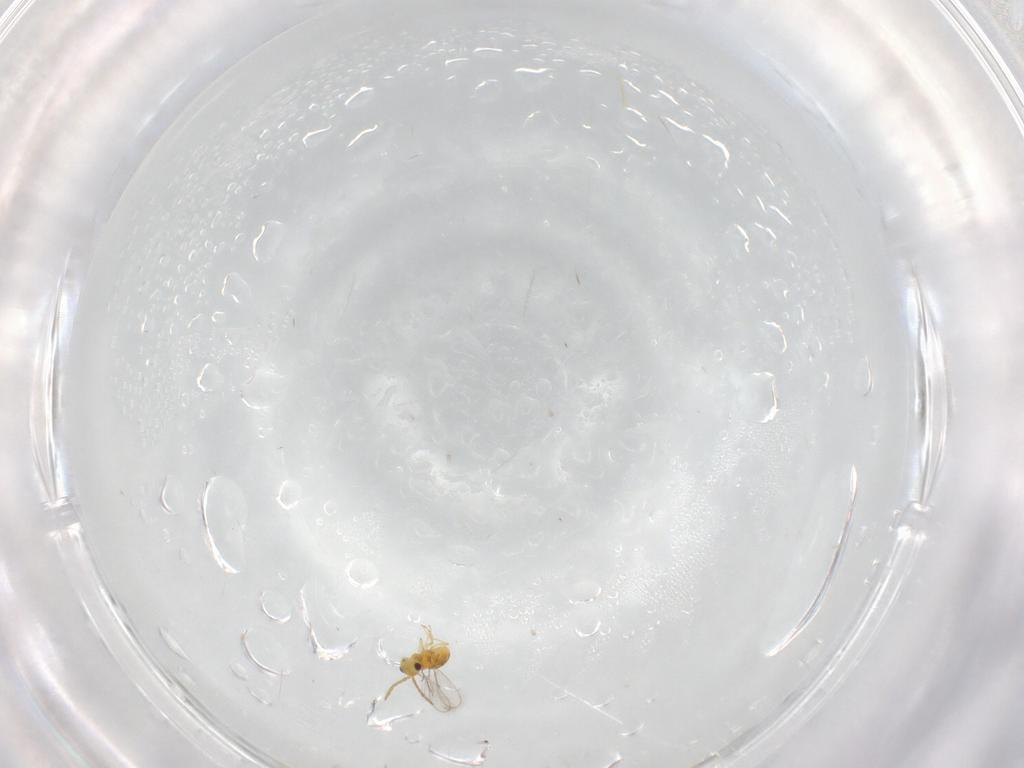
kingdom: Animalia
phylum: Arthropoda
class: Insecta
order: Hymenoptera
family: Aphelinidae
